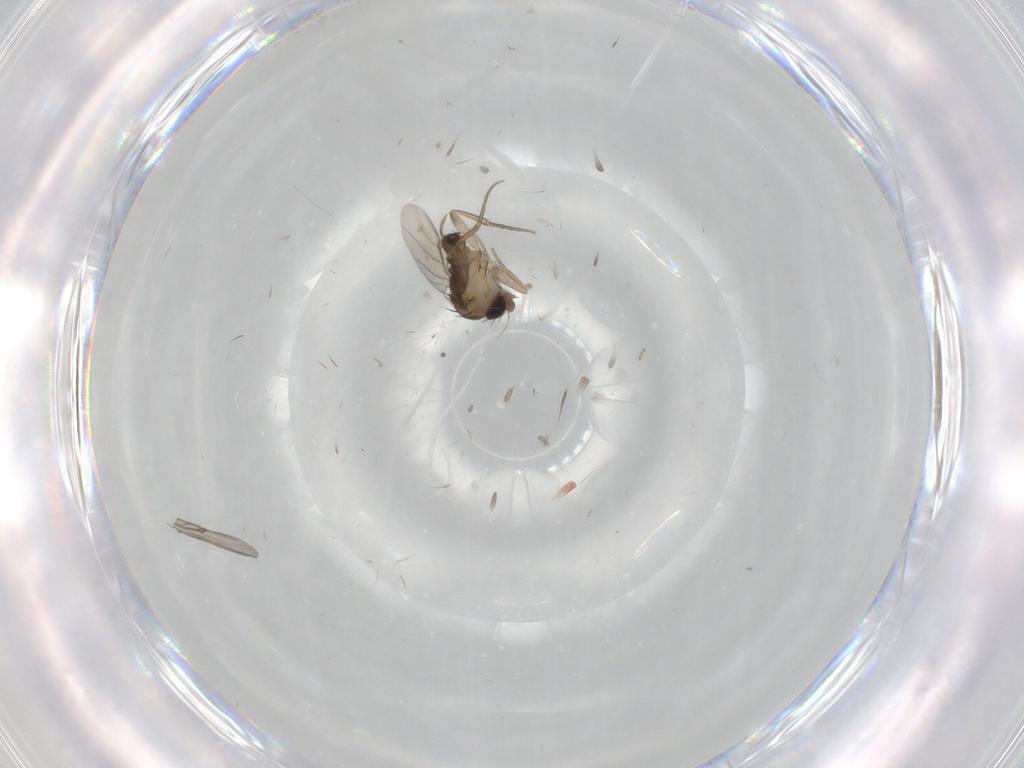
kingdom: Animalia
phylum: Arthropoda
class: Insecta
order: Diptera
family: Phoridae
